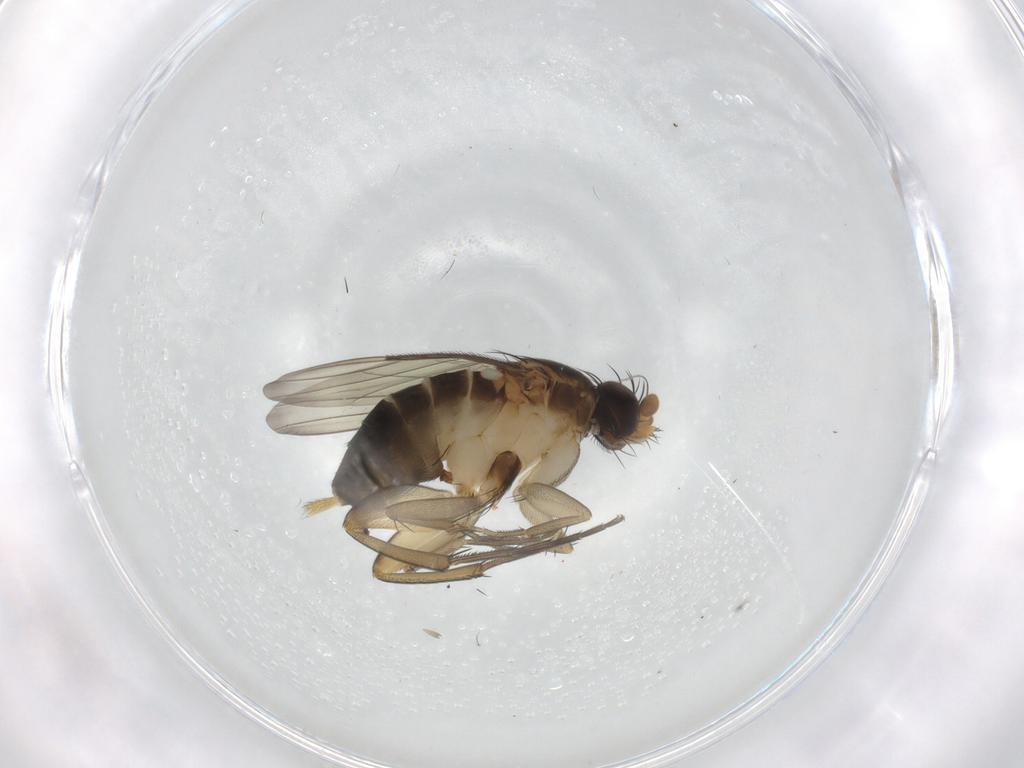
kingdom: Animalia
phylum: Arthropoda
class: Insecta
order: Diptera
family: Phoridae
